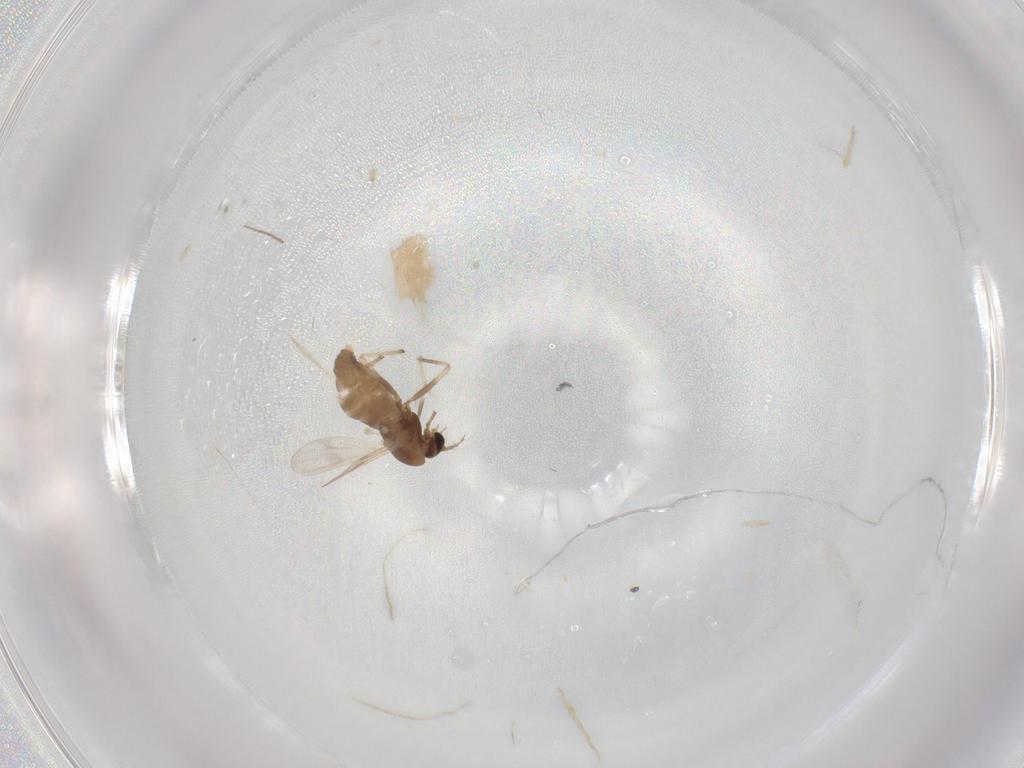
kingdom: Animalia
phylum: Arthropoda
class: Insecta
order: Diptera
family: Chironomidae
